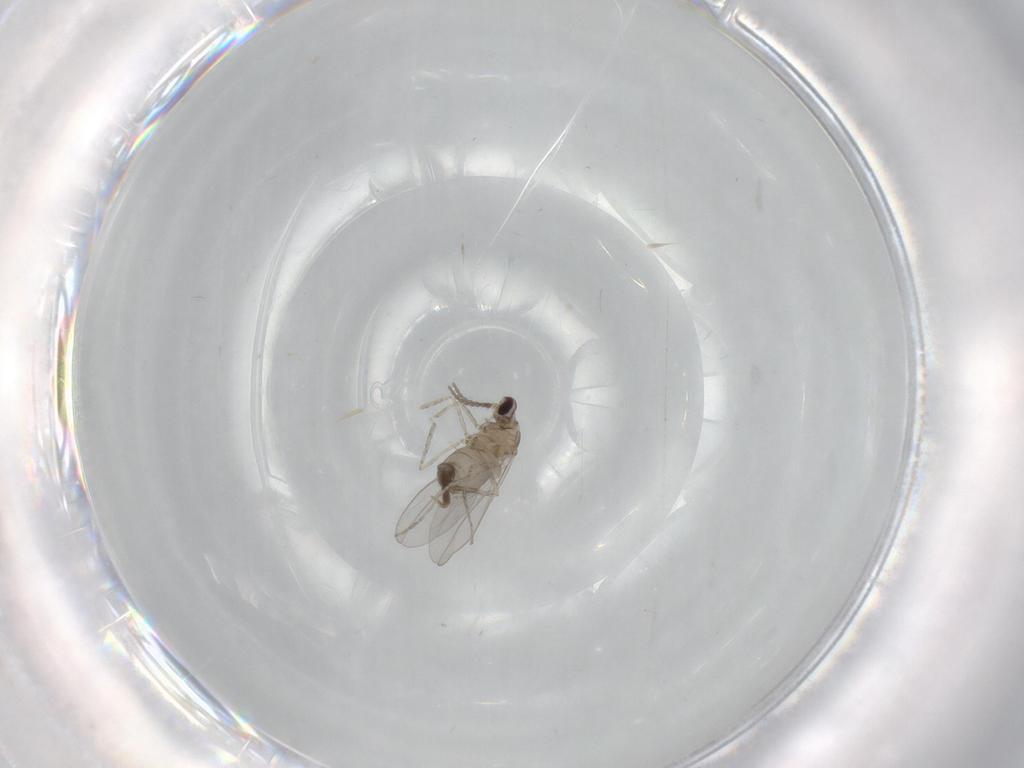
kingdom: Animalia
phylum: Arthropoda
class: Insecta
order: Diptera
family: Cecidomyiidae
